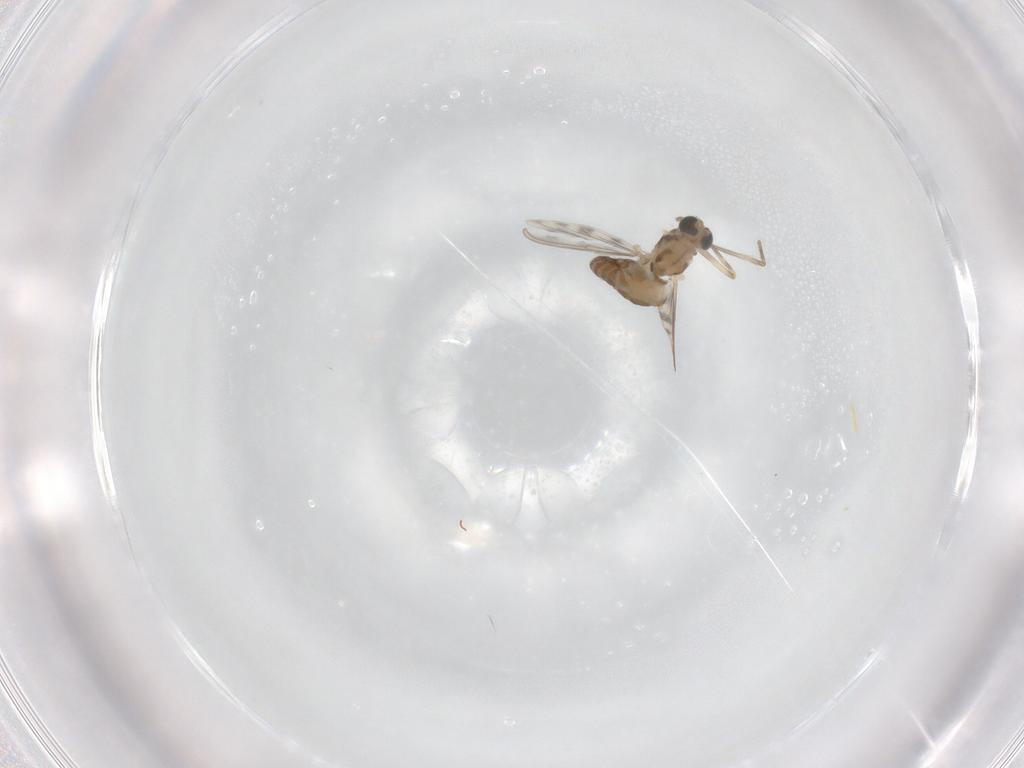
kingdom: Animalia
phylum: Arthropoda
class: Insecta
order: Diptera
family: Chironomidae
